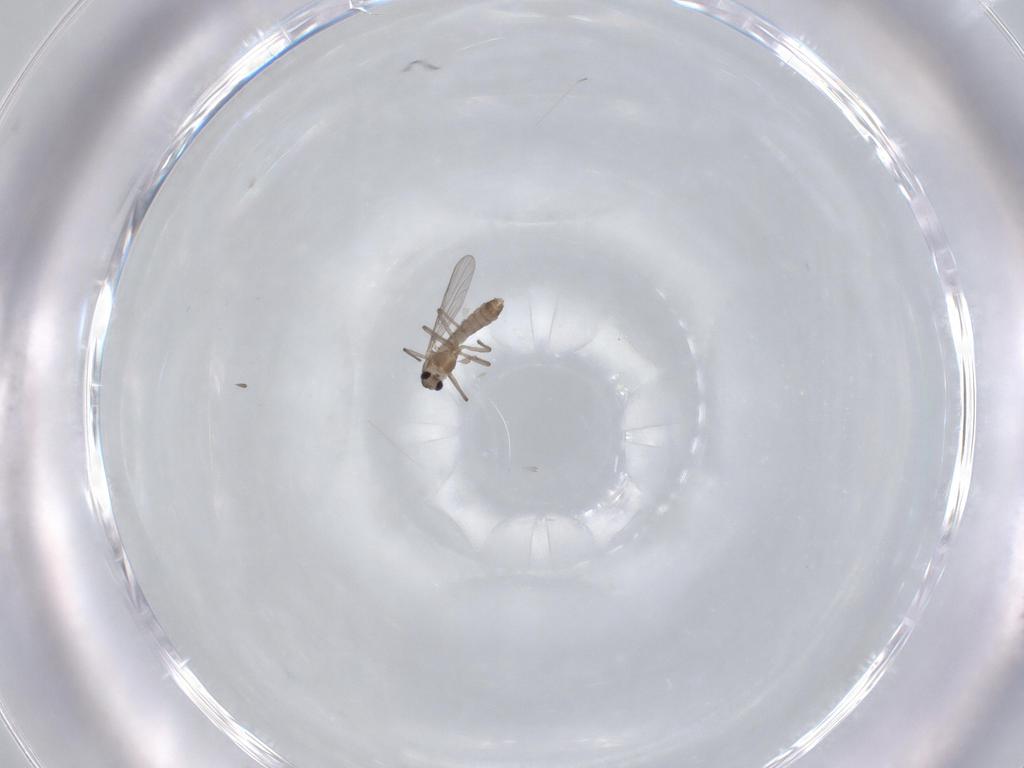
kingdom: Animalia
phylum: Arthropoda
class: Insecta
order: Diptera
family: Chironomidae
